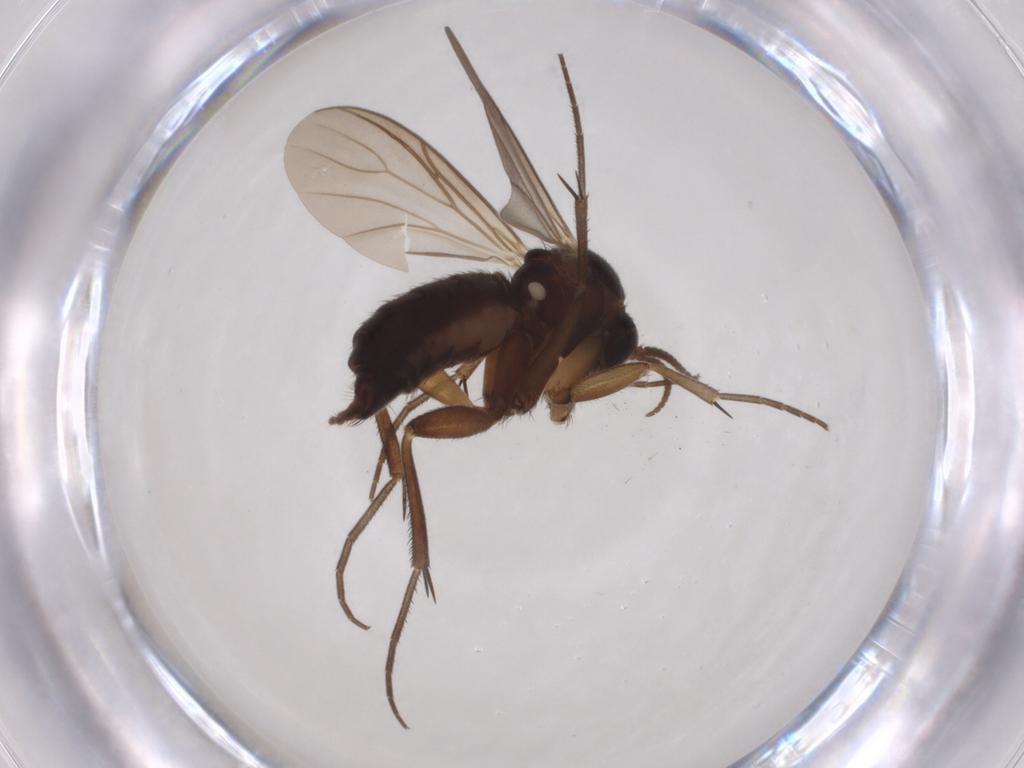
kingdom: Animalia
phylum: Arthropoda
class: Insecta
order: Diptera
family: Mycetophilidae
